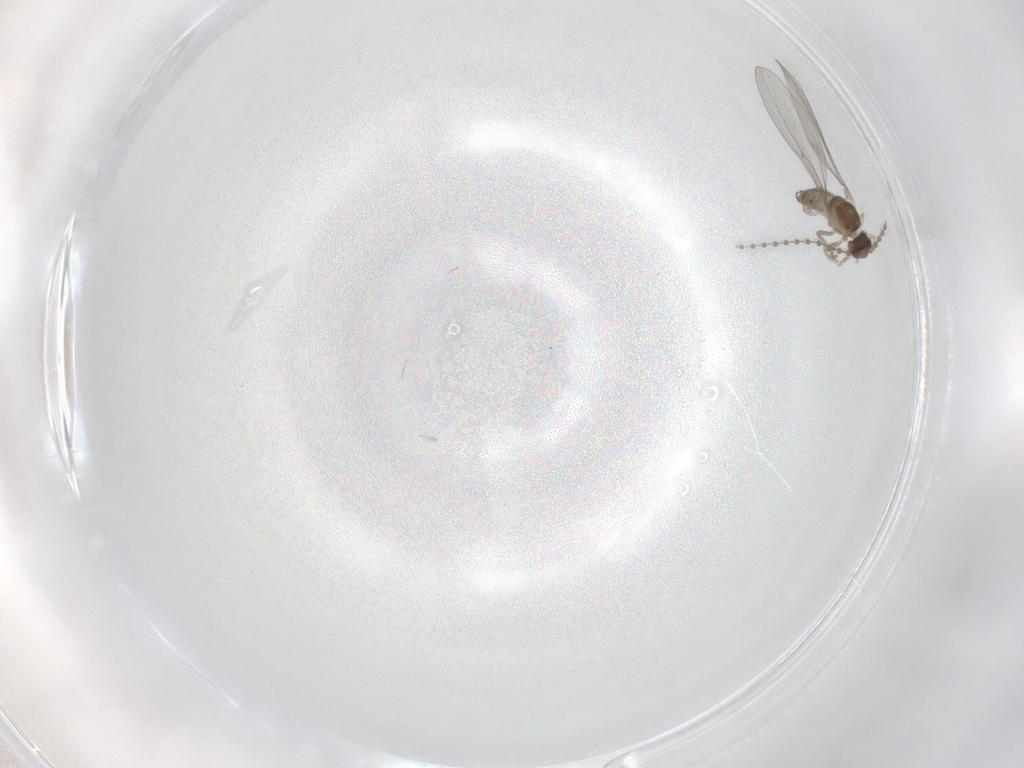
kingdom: Animalia
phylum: Arthropoda
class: Insecta
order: Diptera
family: Cecidomyiidae
